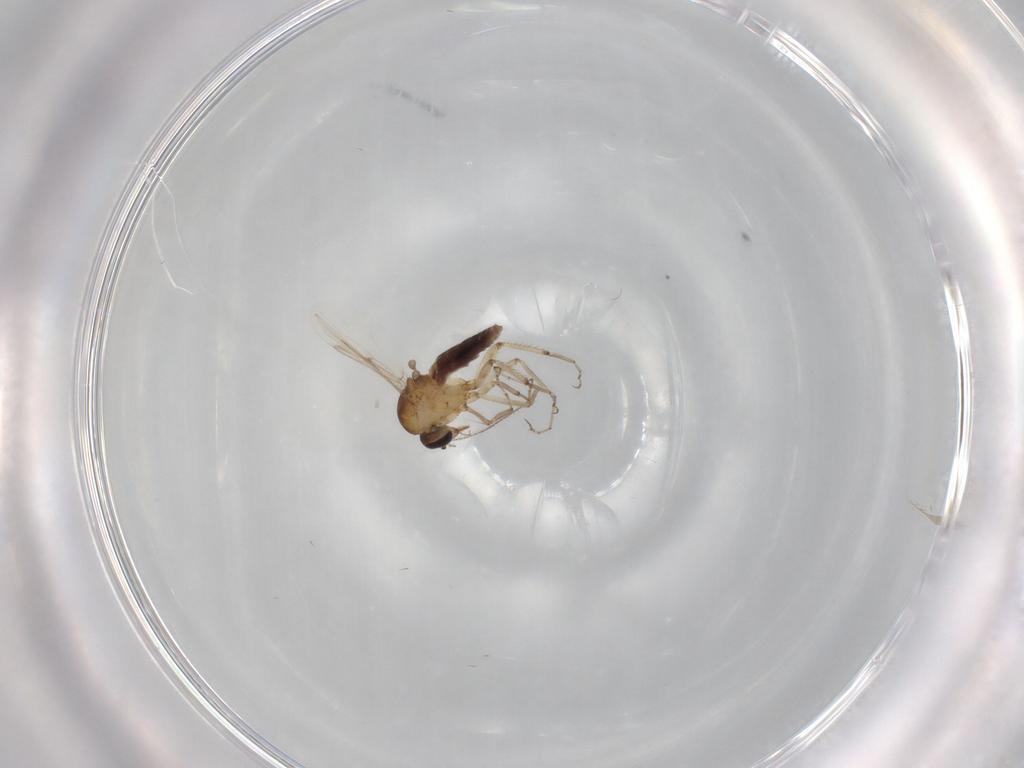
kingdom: Animalia
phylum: Arthropoda
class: Insecta
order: Diptera
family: Ceratopogonidae
